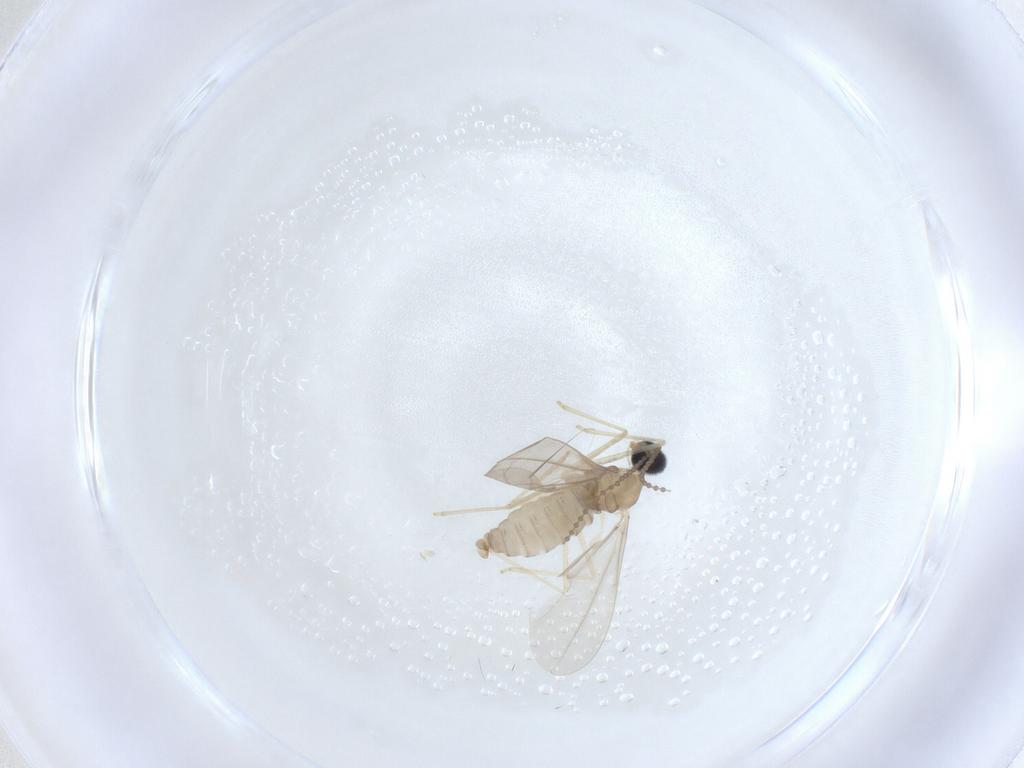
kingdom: Animalia
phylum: Arthropoda
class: Insecta
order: Diptera
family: Cecidomyiidae
